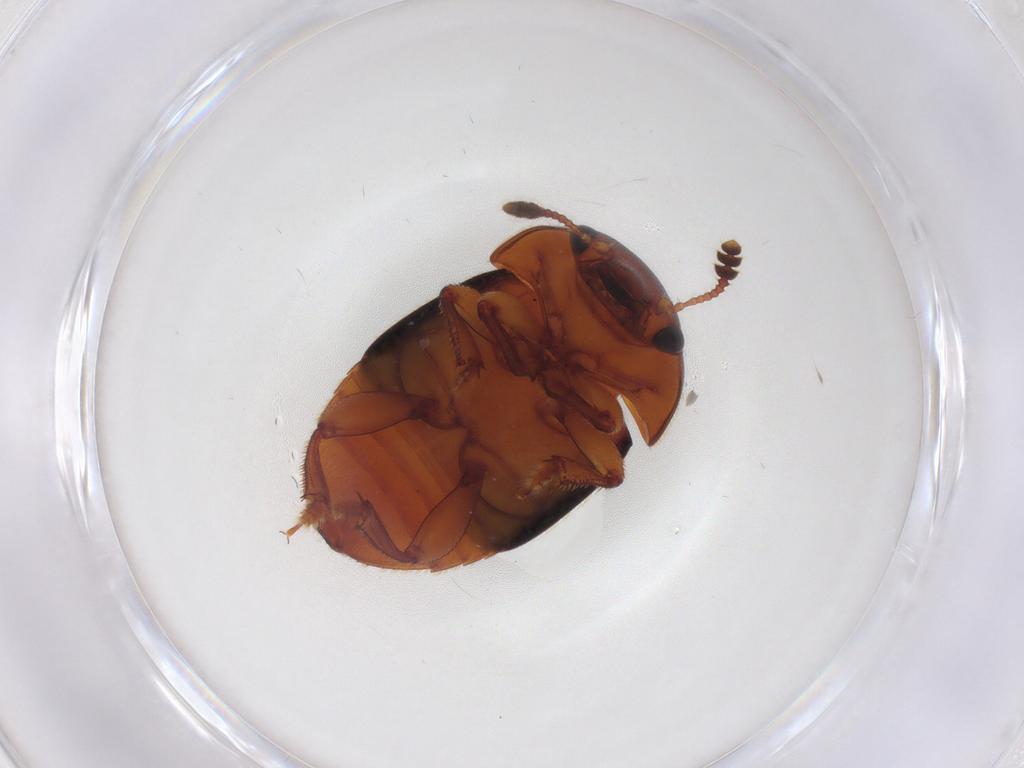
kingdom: Animalia
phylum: Arthropoda
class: Insecta
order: Coleoptera
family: Nitidulidae
